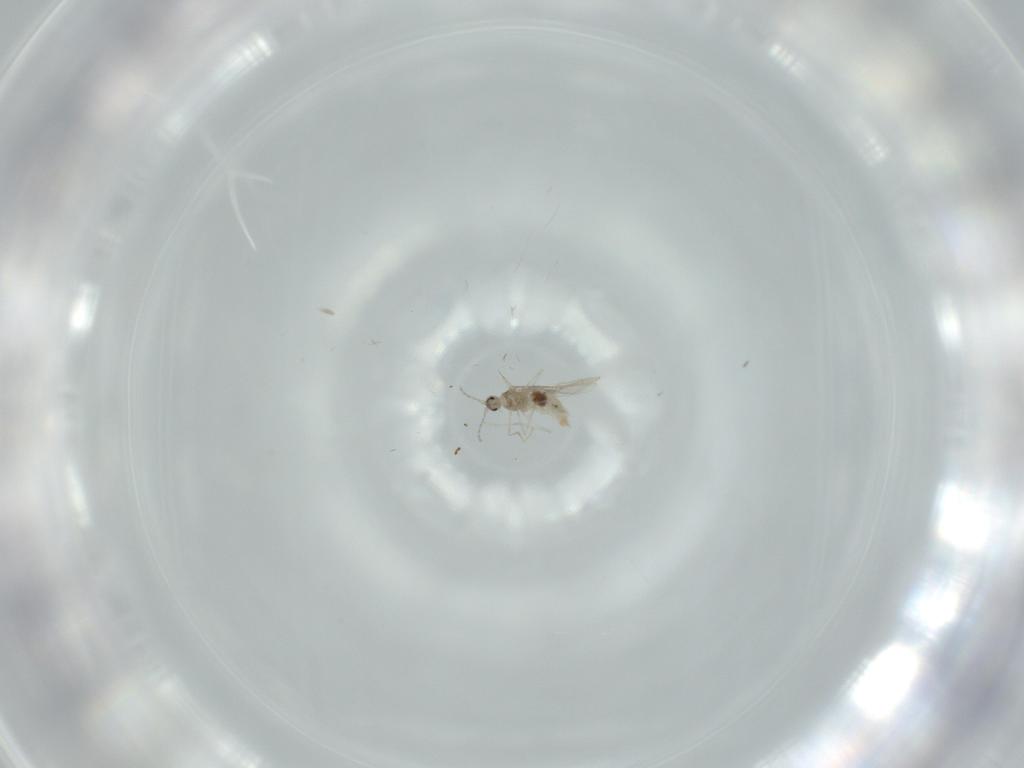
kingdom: Animalia
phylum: Arthropoda
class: Insecta
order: Diptera
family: Cecidomyiidae
